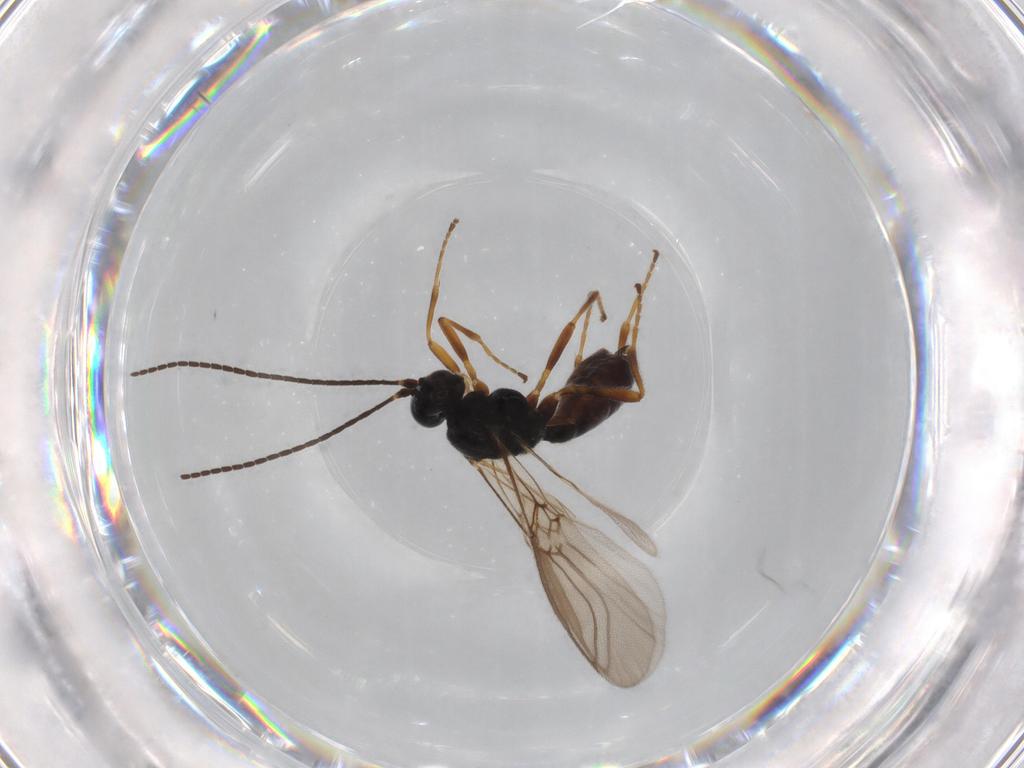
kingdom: Animalia
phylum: Arthropoda
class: Insecta
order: Hymenoptera
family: Braconidae
